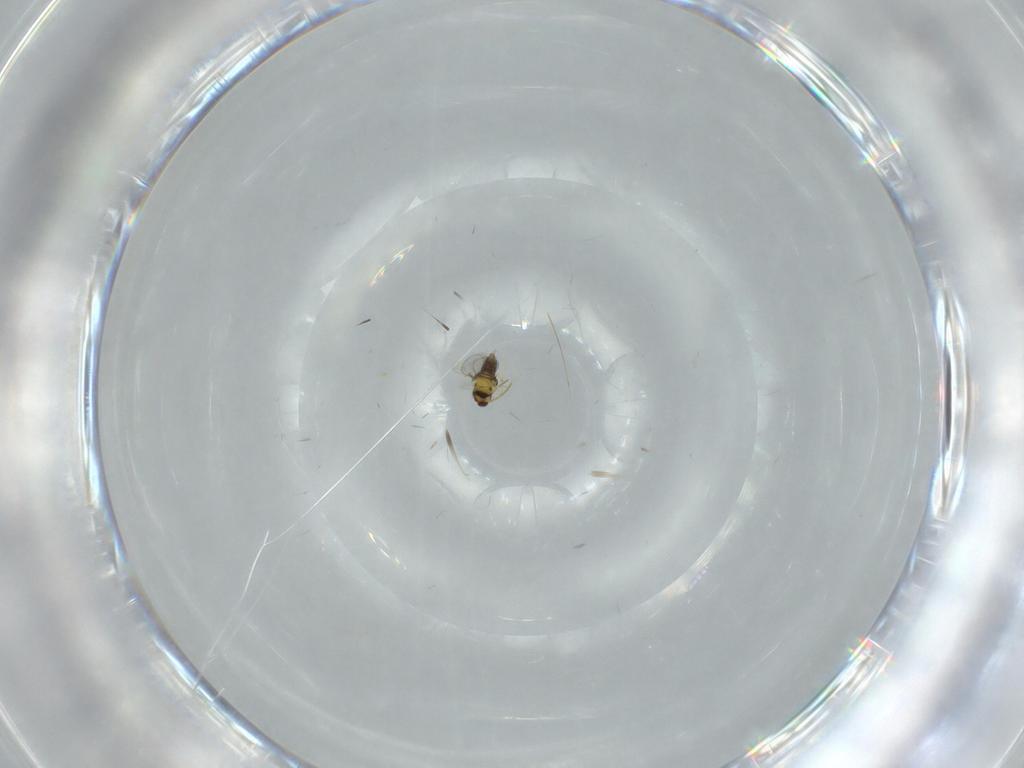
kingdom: Animalia
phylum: Arthropoda
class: Insecta
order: Hymenoptera
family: Aphelinidae
